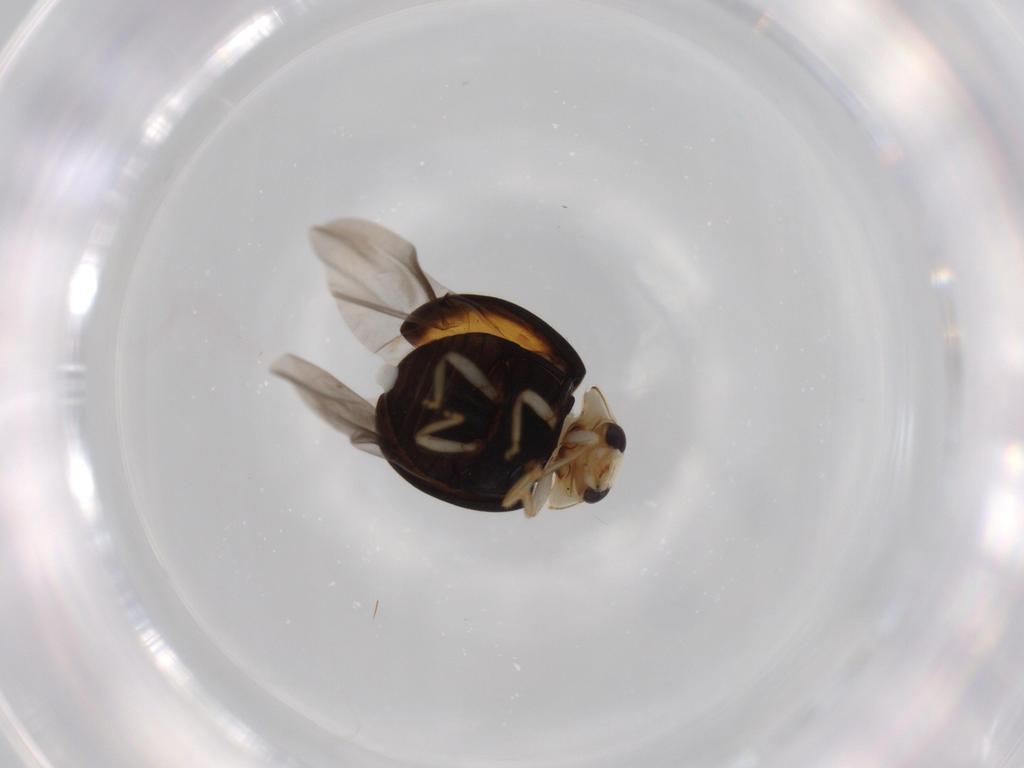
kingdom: Animalia
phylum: Arthropoda
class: Insecta
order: Coleoptera
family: Coccinellidae
